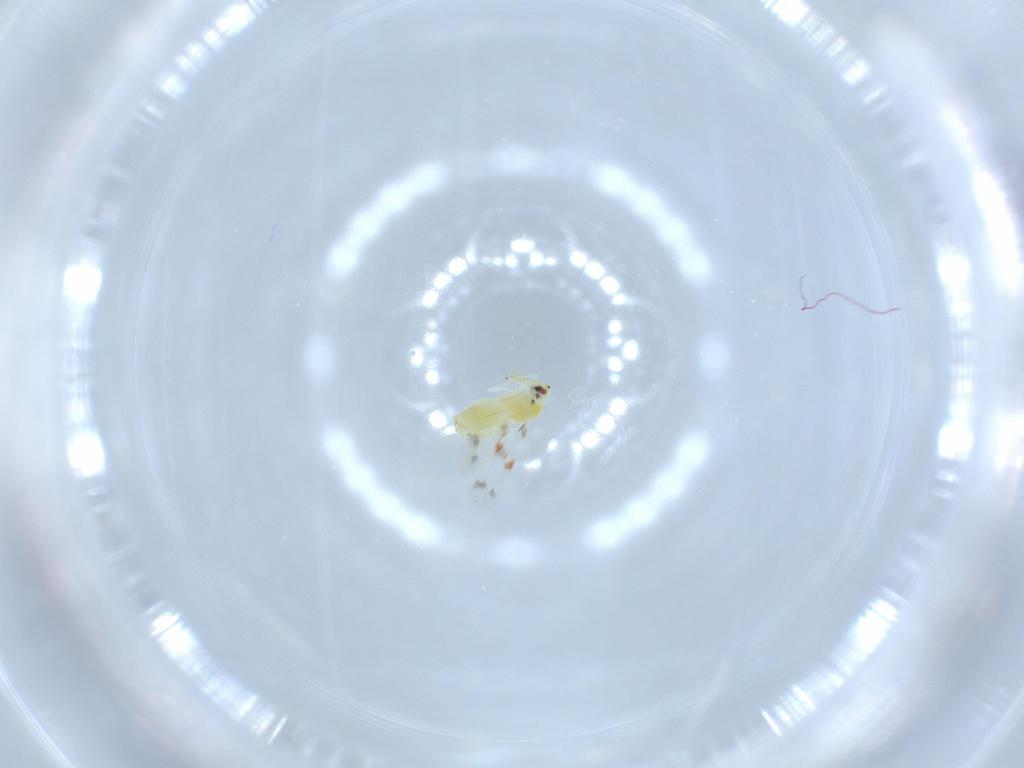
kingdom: Animalia
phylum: Arthropoda
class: Insecta
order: Hemiptera
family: Aleyrodidae
